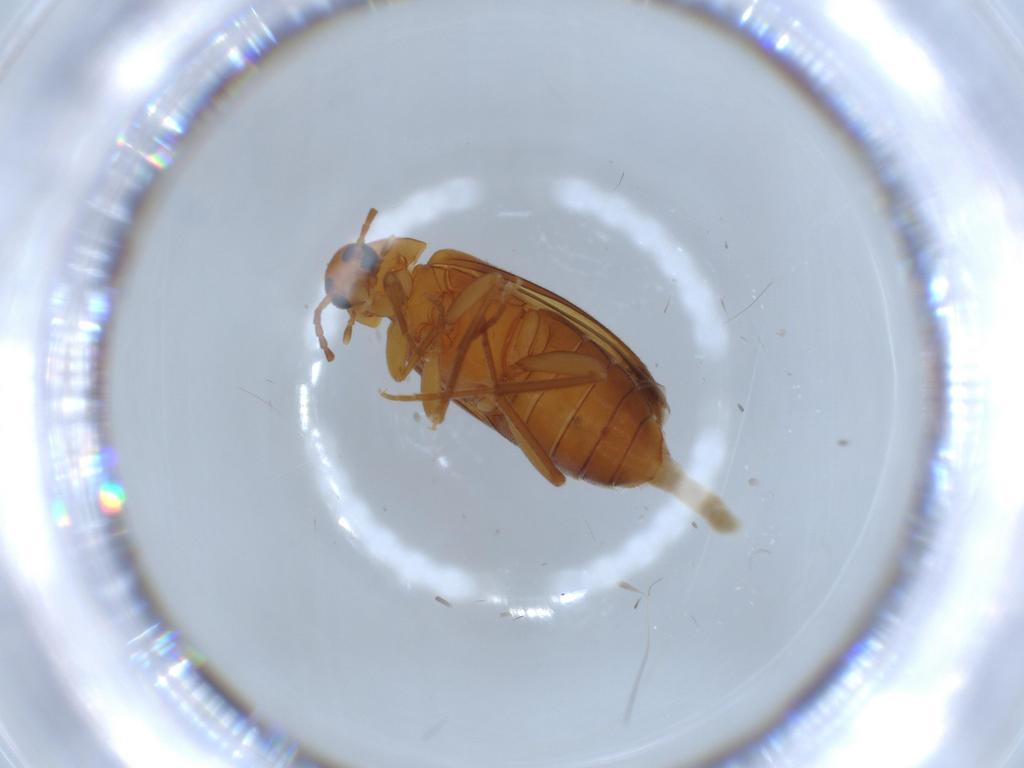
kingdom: Animalia
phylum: Arthropoda
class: Insecta
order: Coleoptera
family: Scraptiidae
